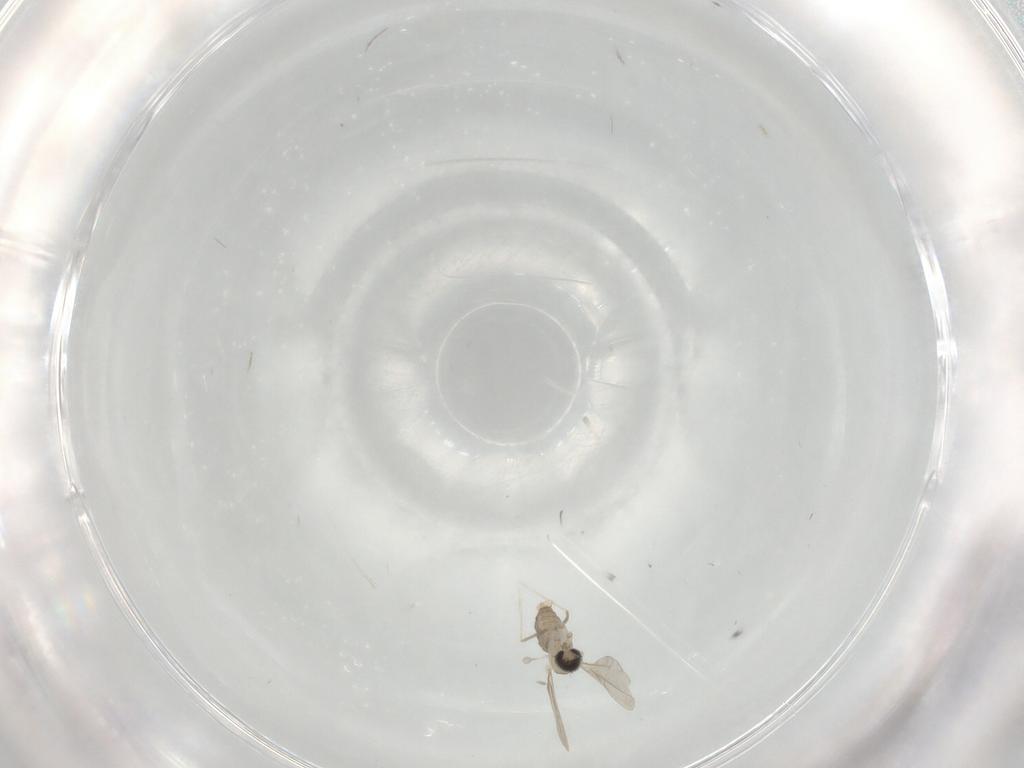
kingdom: Animalia
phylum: Arthropoda
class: Insecta
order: Diptera
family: Cecidomyiidae
